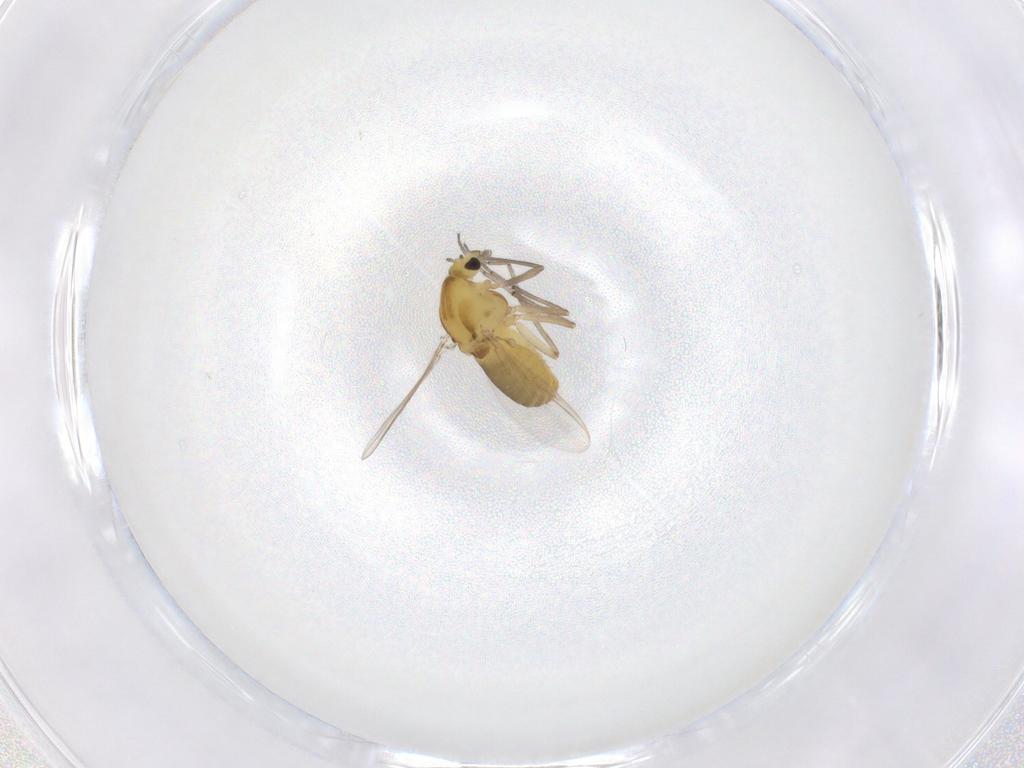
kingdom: Animalia
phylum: Arthropoda
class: Insecta
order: Diptera
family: Chironomidae
